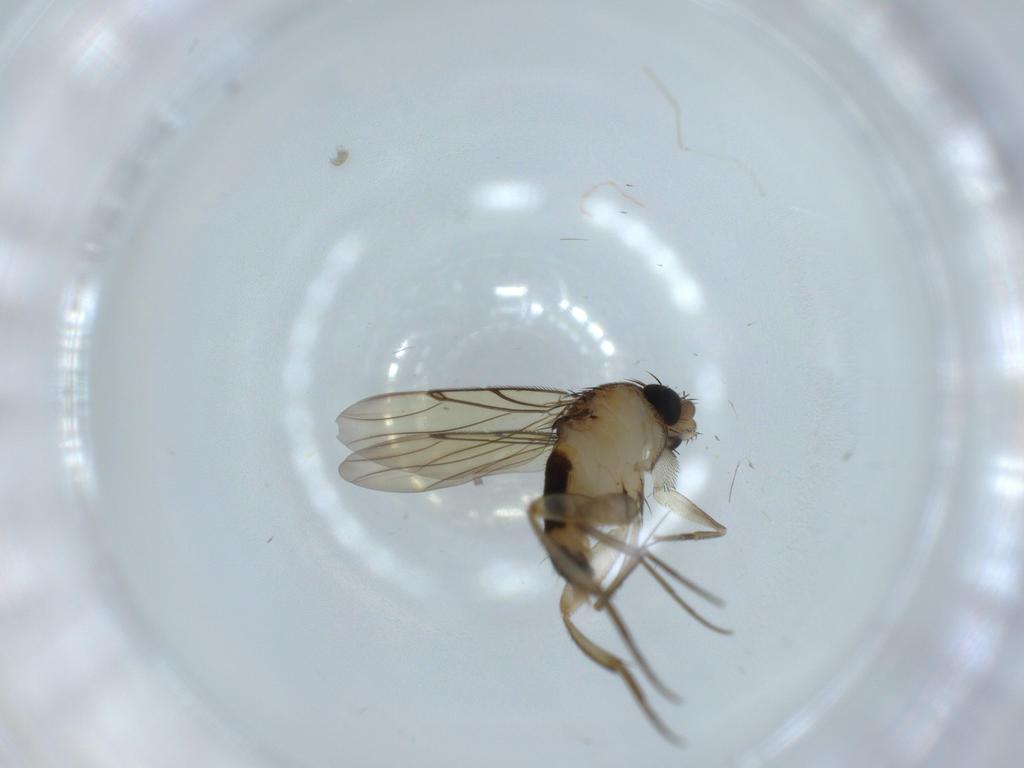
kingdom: Animalia
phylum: Arthropoda
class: Insecta
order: Diptera
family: Phoridae
